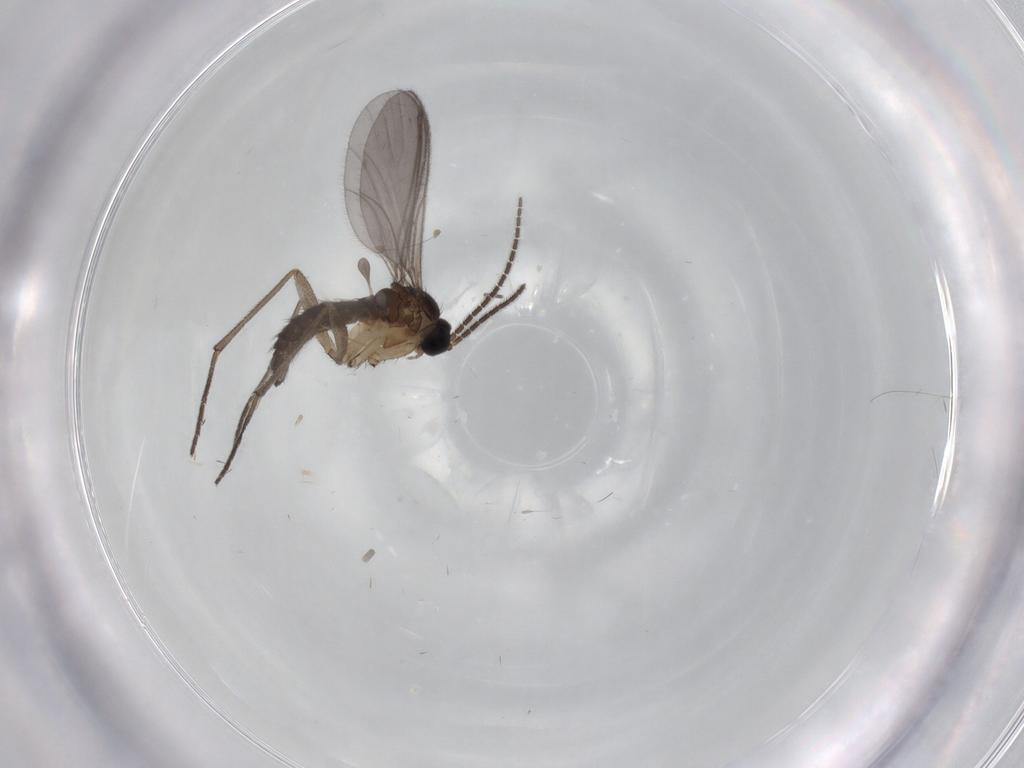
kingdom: Animalia
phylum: Arthropoda
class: Insecta
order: Diptera
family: Sciaridae
